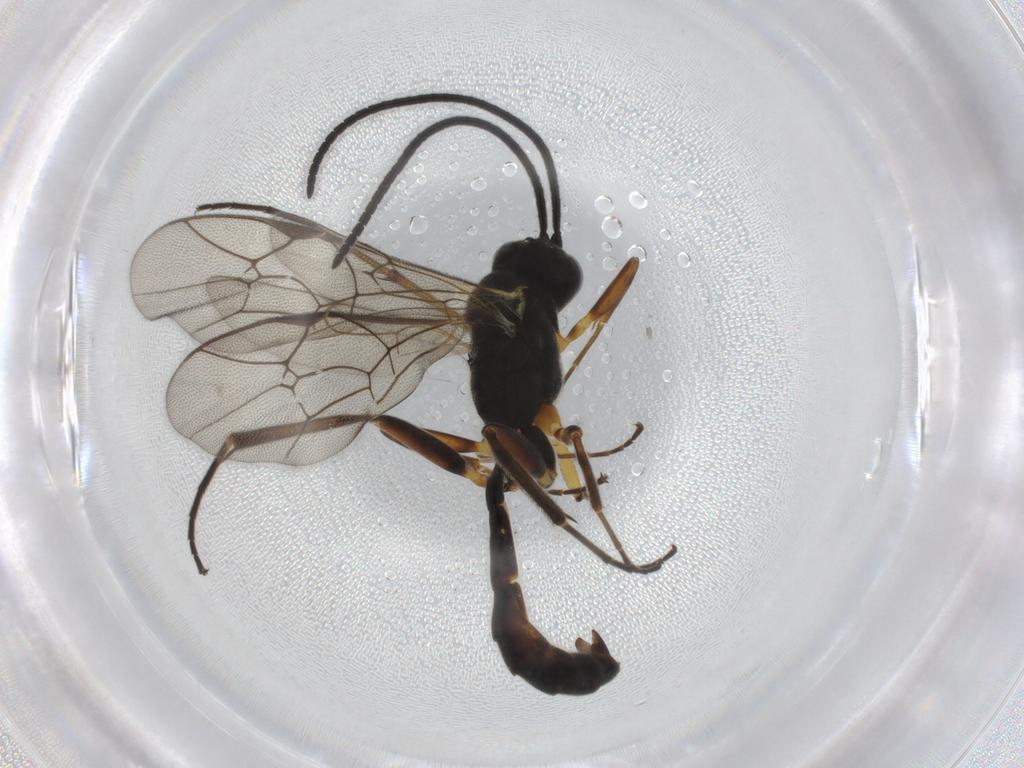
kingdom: Animalia
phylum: Arthropoda
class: Insecta
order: Hymenoptera
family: Ichneumonidae
